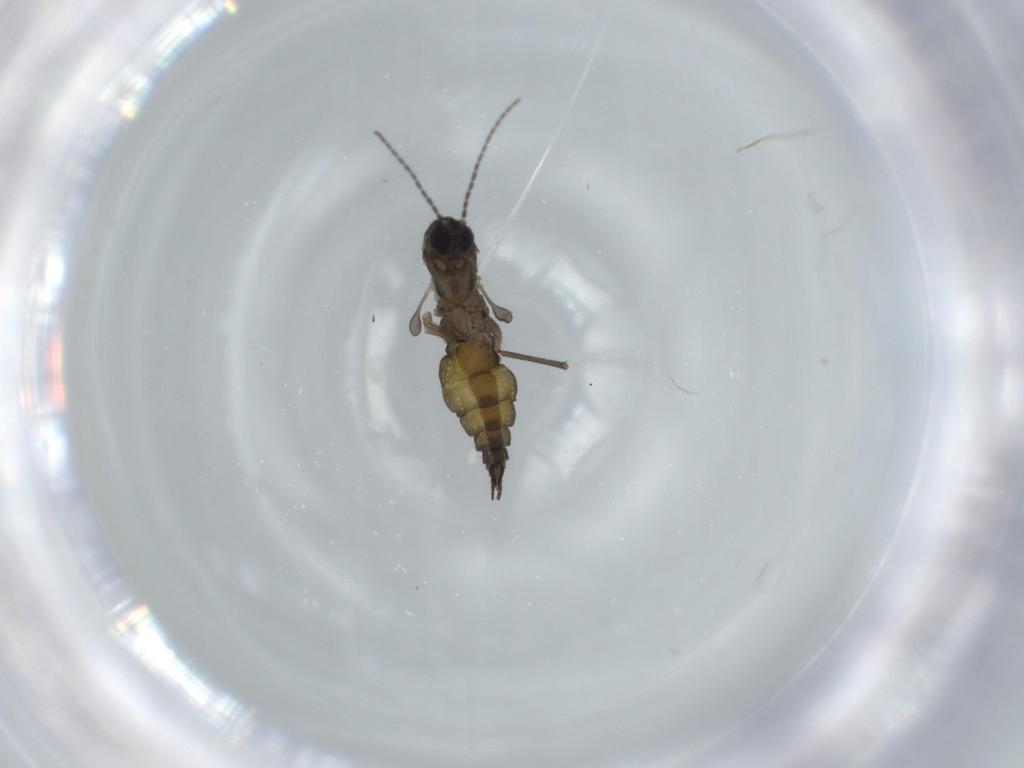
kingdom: Animalia
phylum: Arthropoda
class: Insecta
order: Diptera
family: Sciaridae
